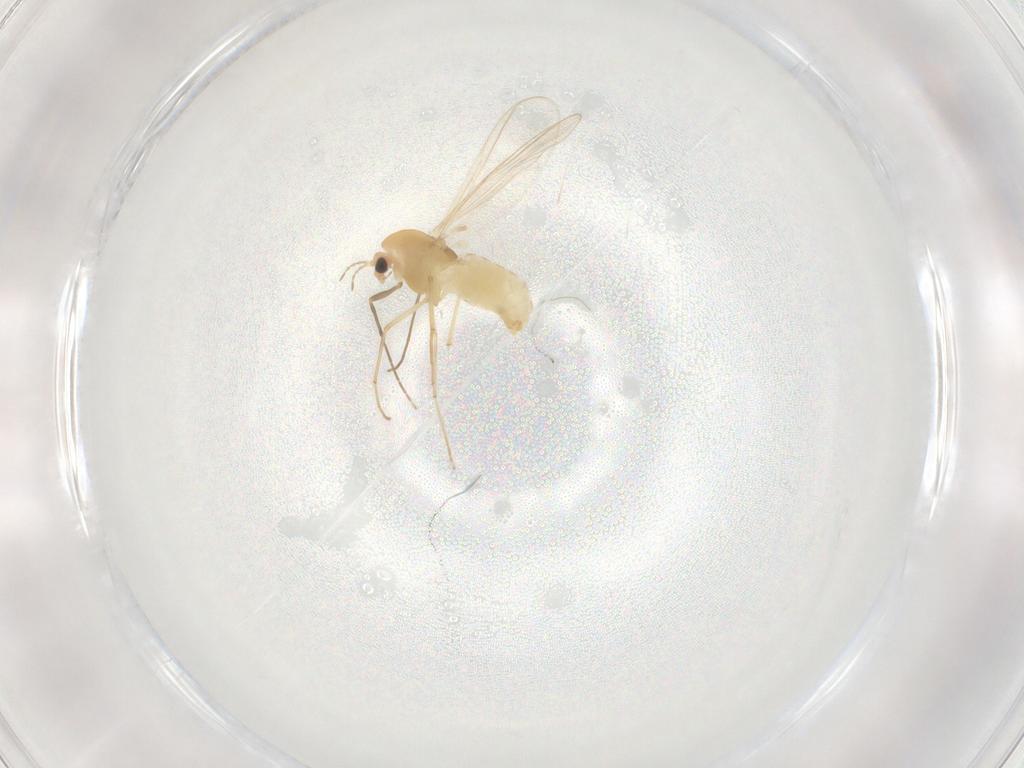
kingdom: Animalia
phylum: Arthropoda
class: Insecta
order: Diptera
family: Chironomidae
